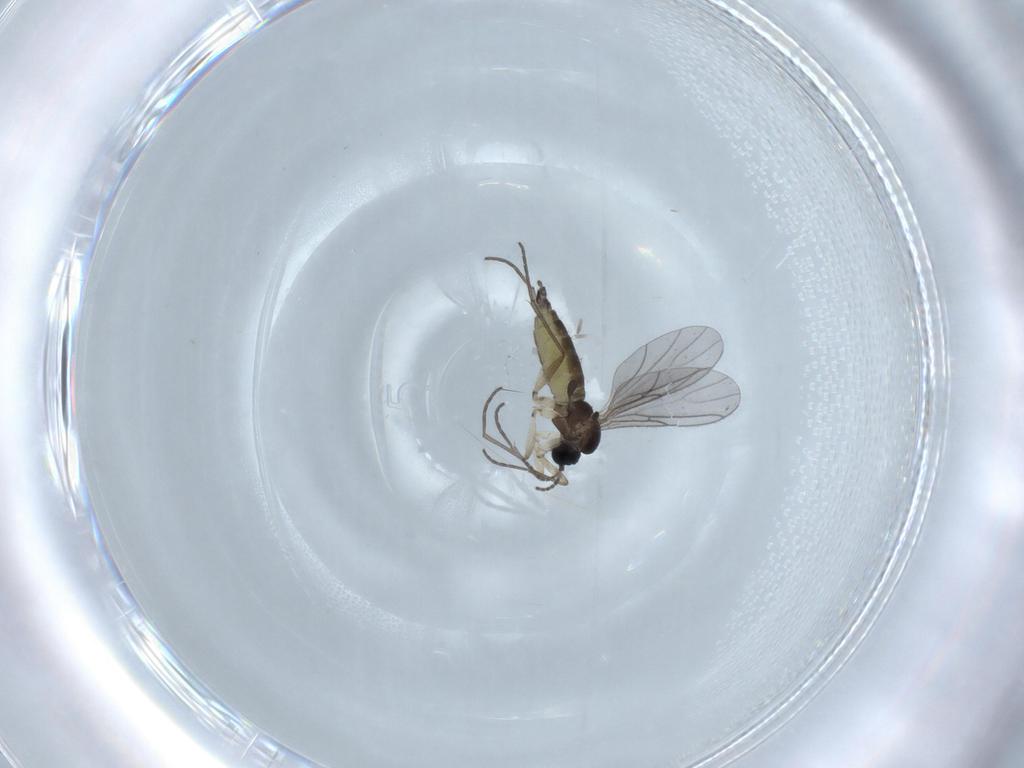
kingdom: Animalia
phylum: Arthropoda
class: Insecta
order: Diptera
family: Sciaridae
